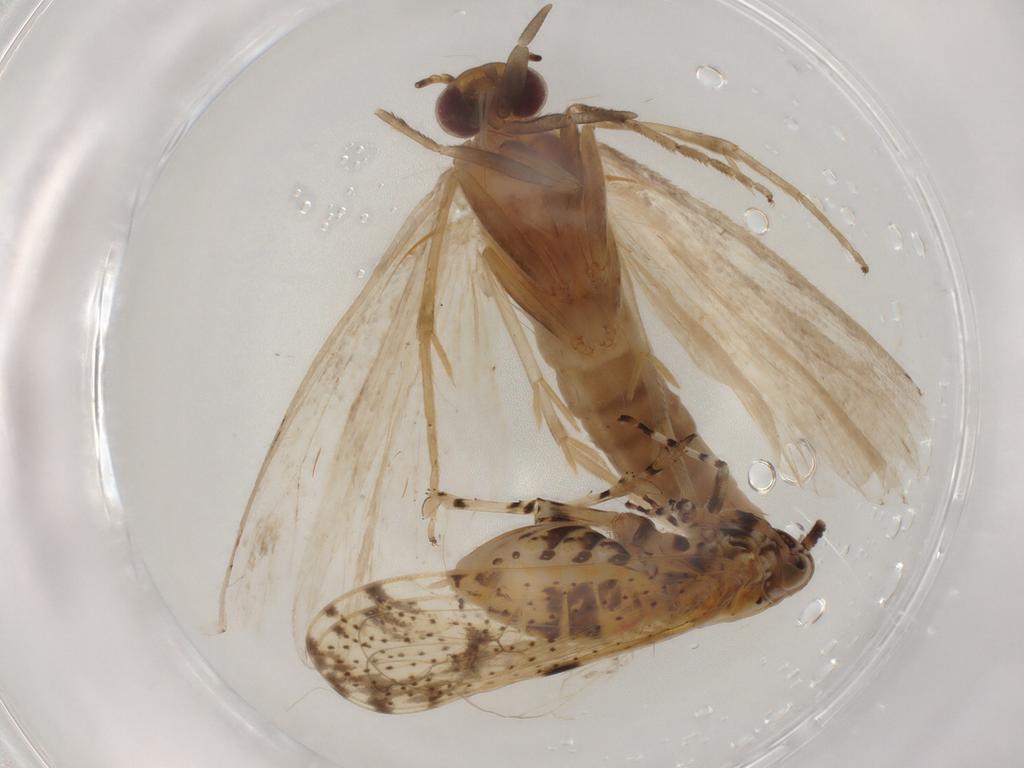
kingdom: Animalia
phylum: Arthropoda
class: Insecta
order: Hemiptera
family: Delphacidae
